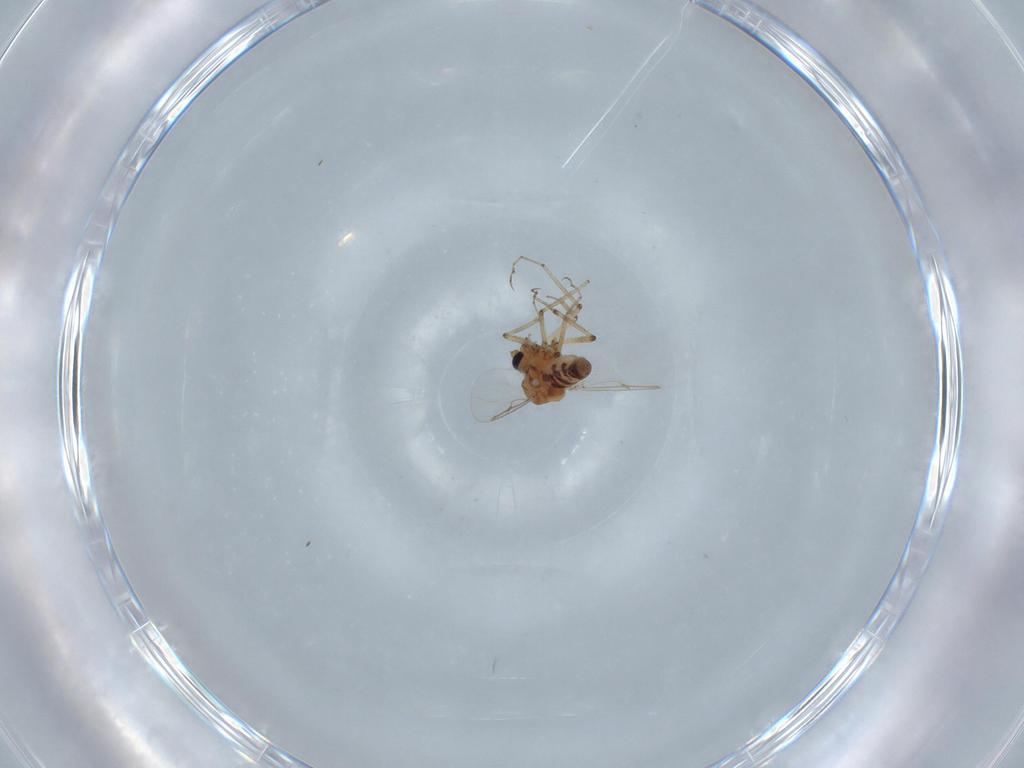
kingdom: Animalia
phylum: Arthropoda
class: Insecta
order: Diptera
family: Ceratopogonidae
